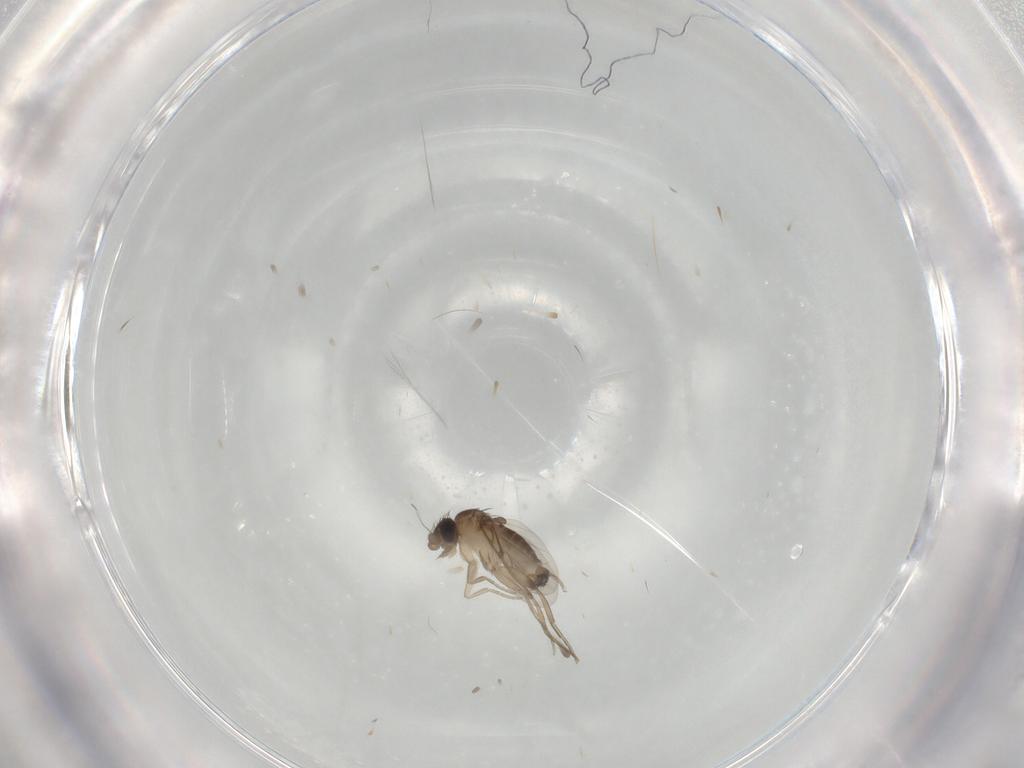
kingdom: Animalia
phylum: Arthropoda
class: Insecta
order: Diptera
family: Phoridae
